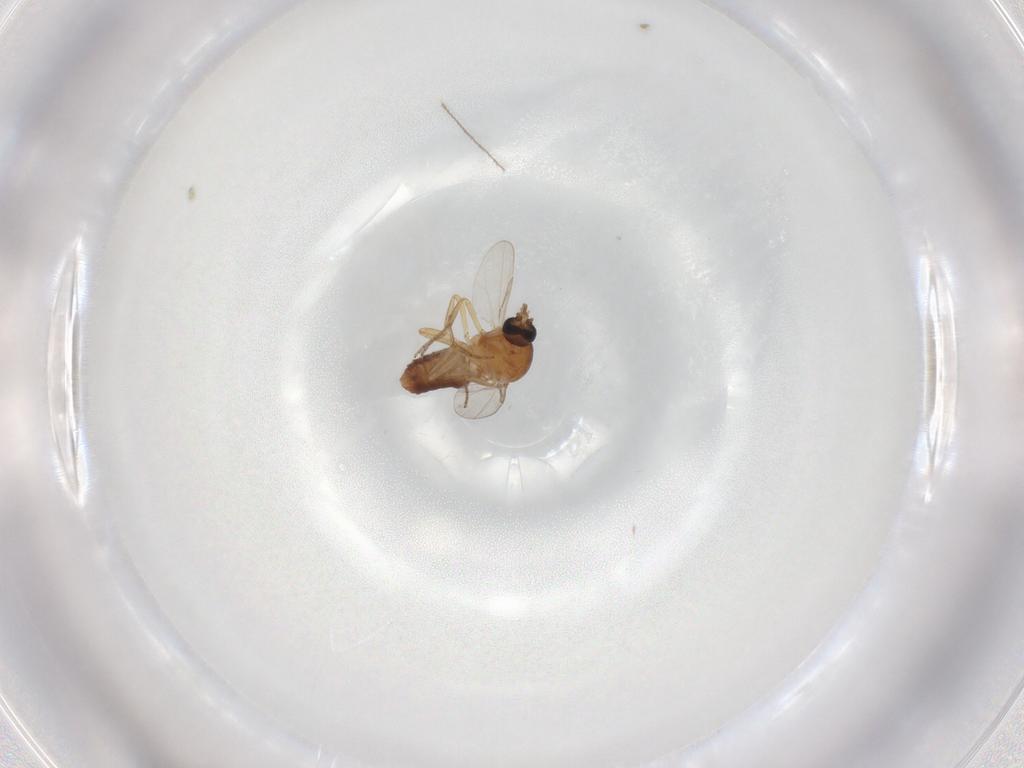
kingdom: Animalia
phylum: Arthropoda
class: Insecta
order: Diptera
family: Ceratopogonidae
